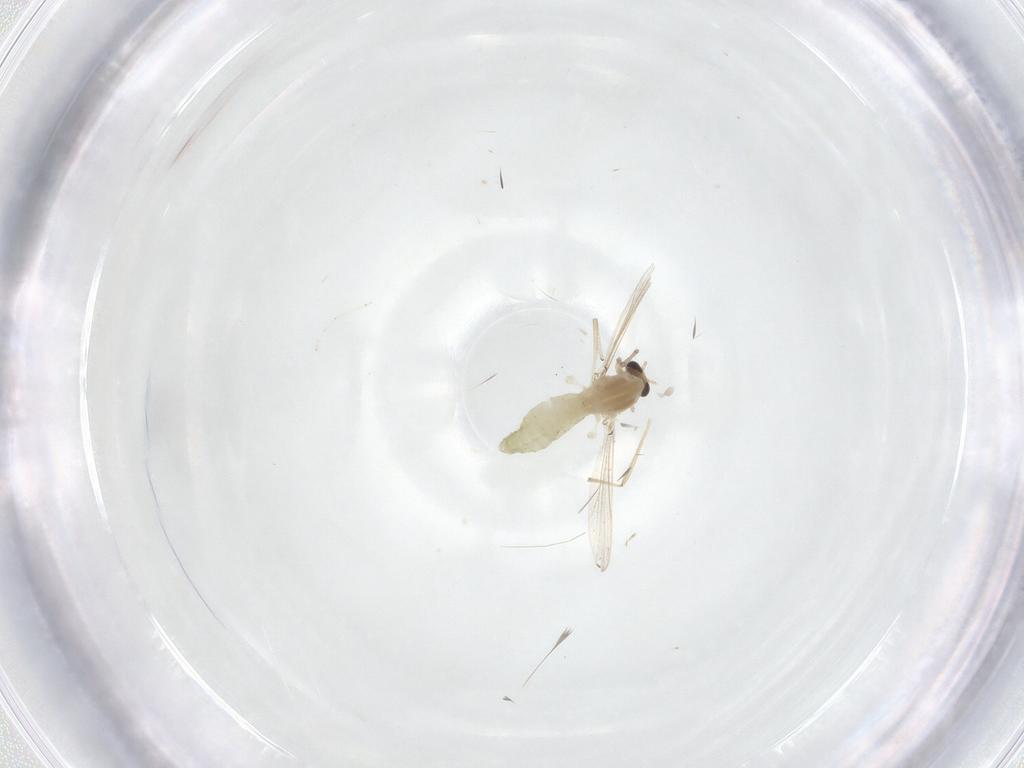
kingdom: Animalia
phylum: Arthropoda
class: Insecta
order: Diptera
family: Chironomidae
